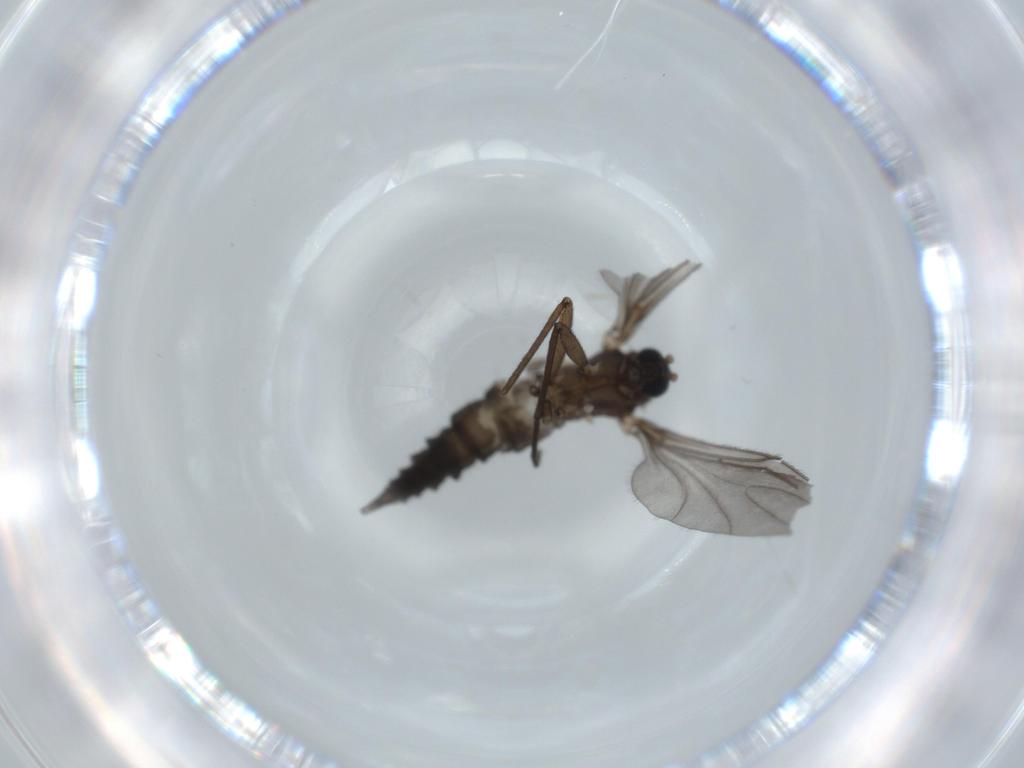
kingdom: Animalia
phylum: Arthropoda
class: Insecta
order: Diptera
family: Sciaridae
